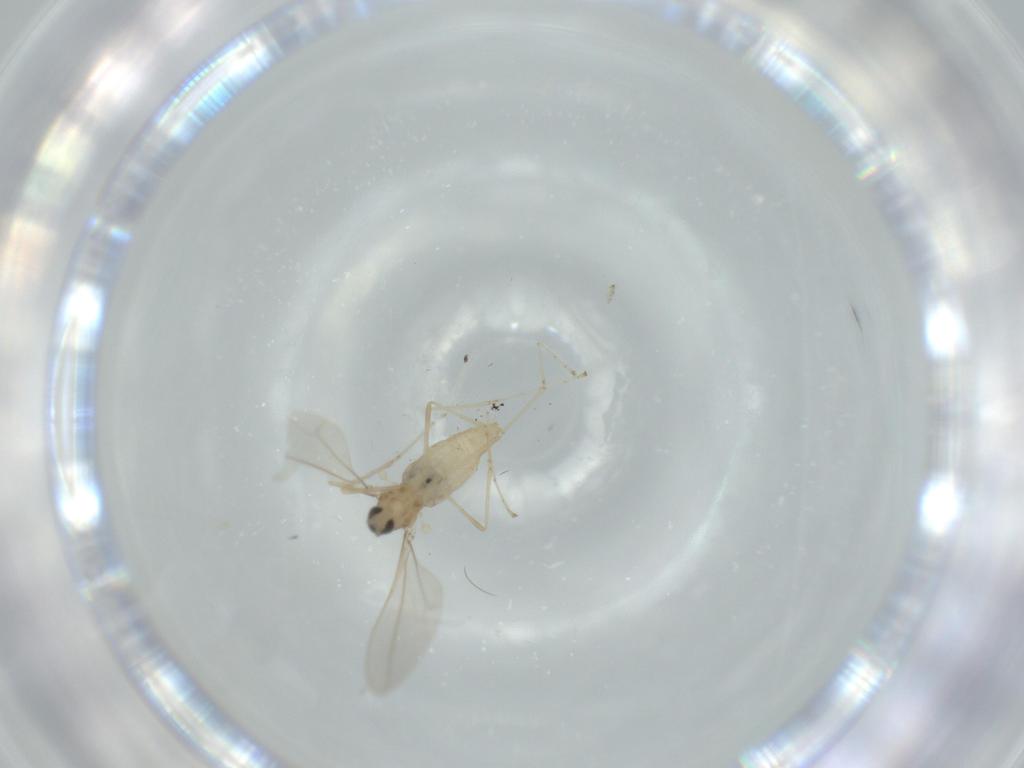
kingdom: Animalia
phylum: Arthropoda
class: Insecta
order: Diptera
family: Cecidomyiidae
